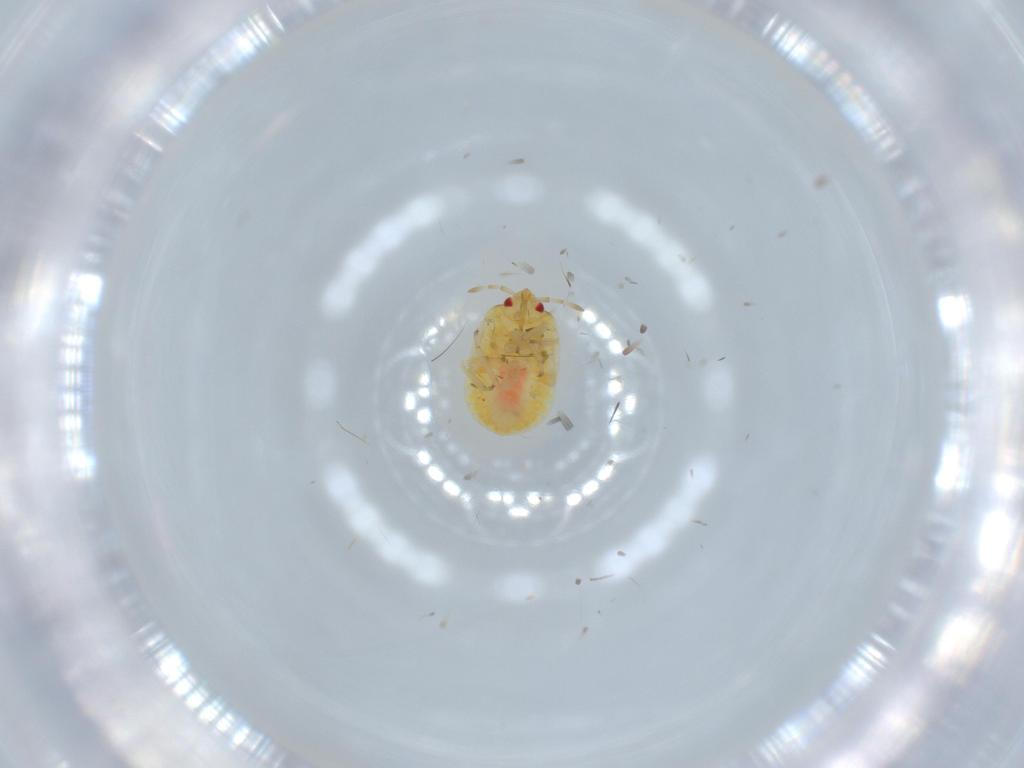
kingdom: Animalia
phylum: Arthropoda
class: Insecta
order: Hemiptera
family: Anthocoridae
